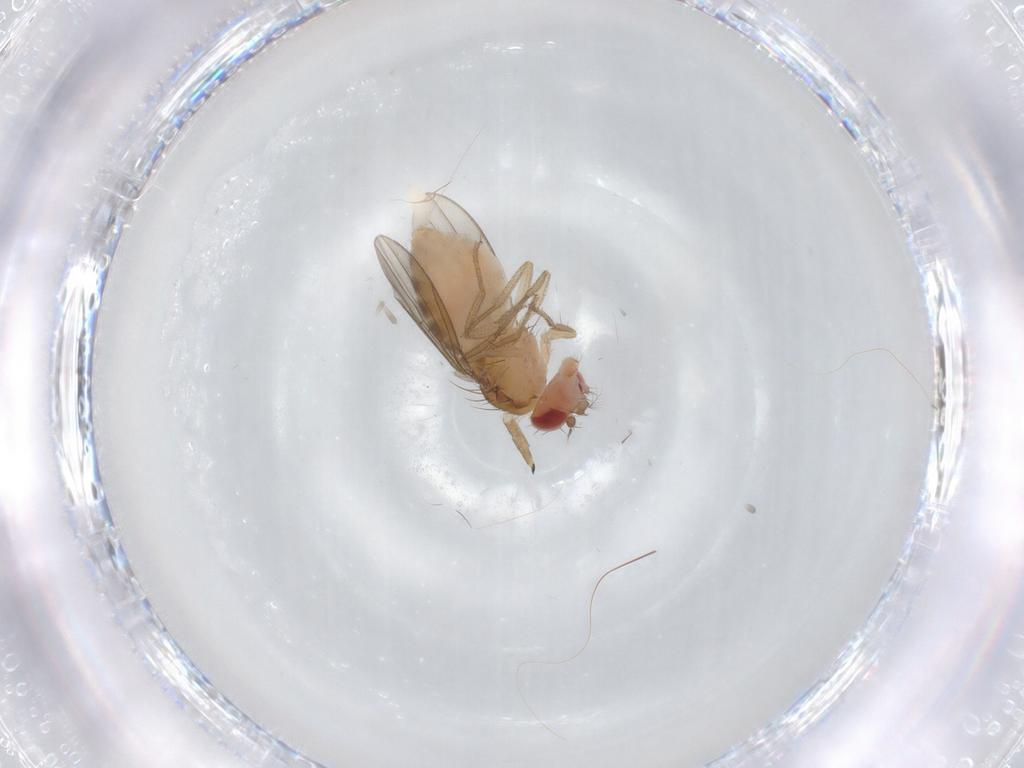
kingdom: Animalia
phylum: Arthropoda
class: Insecta
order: Diptera
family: Drosophilidae
